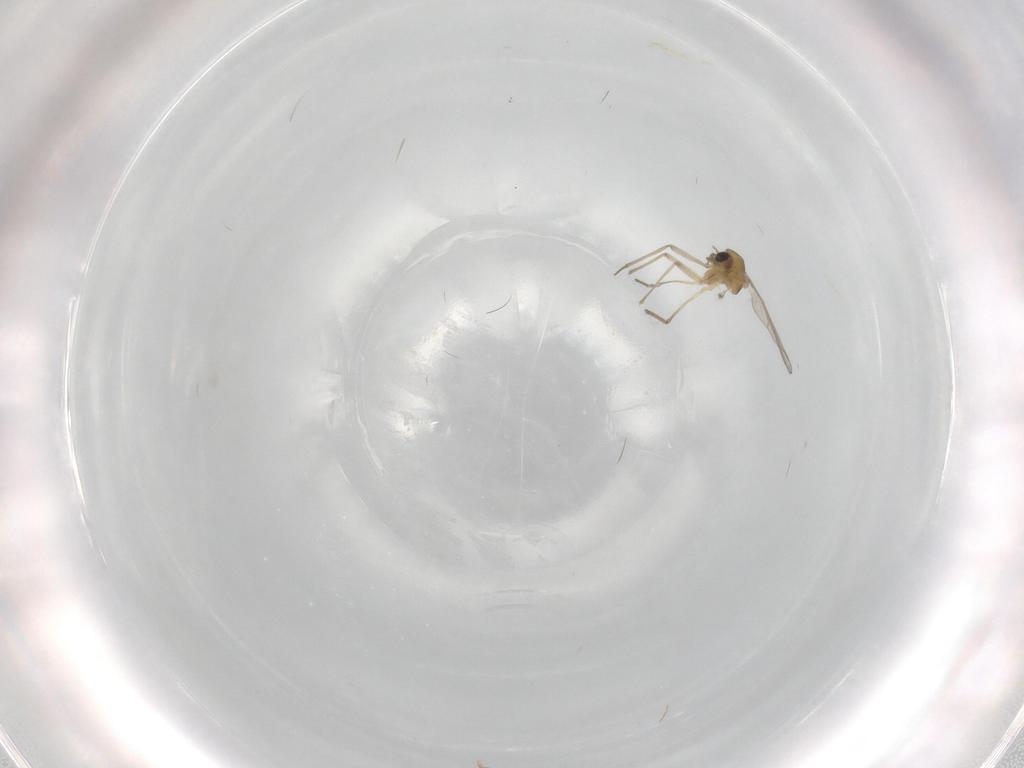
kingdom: Animalia
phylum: Arthropoda
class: Insecta
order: Diptera
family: Chironomidae
